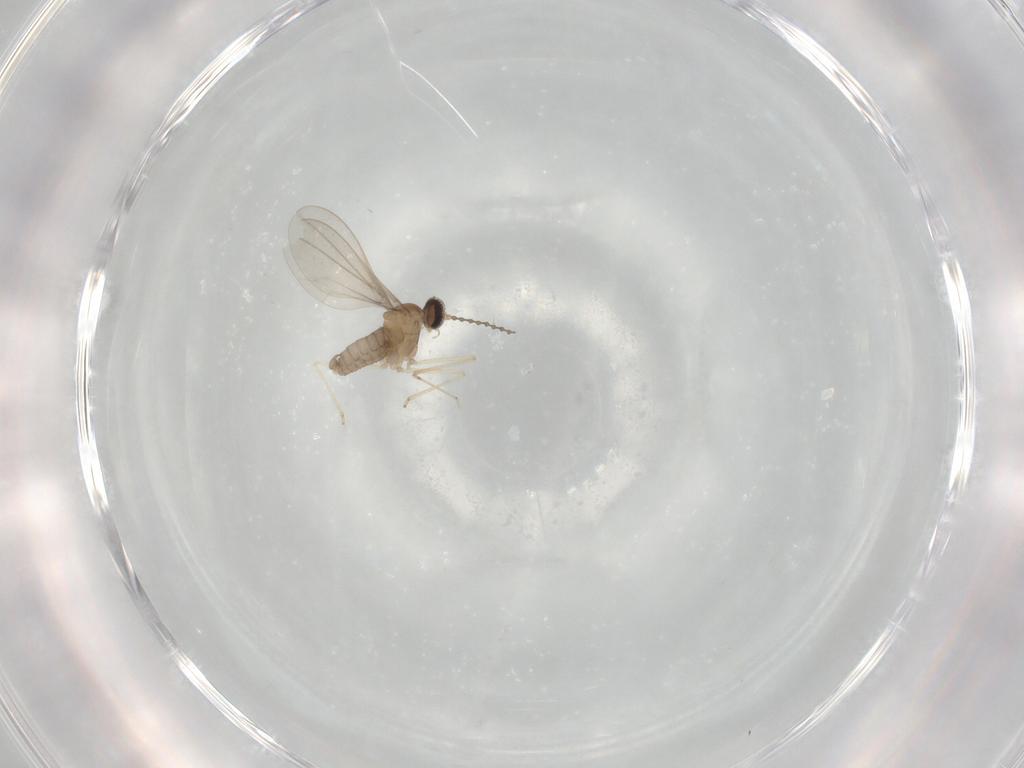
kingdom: Animalia
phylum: Arthropoda
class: Insecta
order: Diptera
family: Cecidomyiidae
